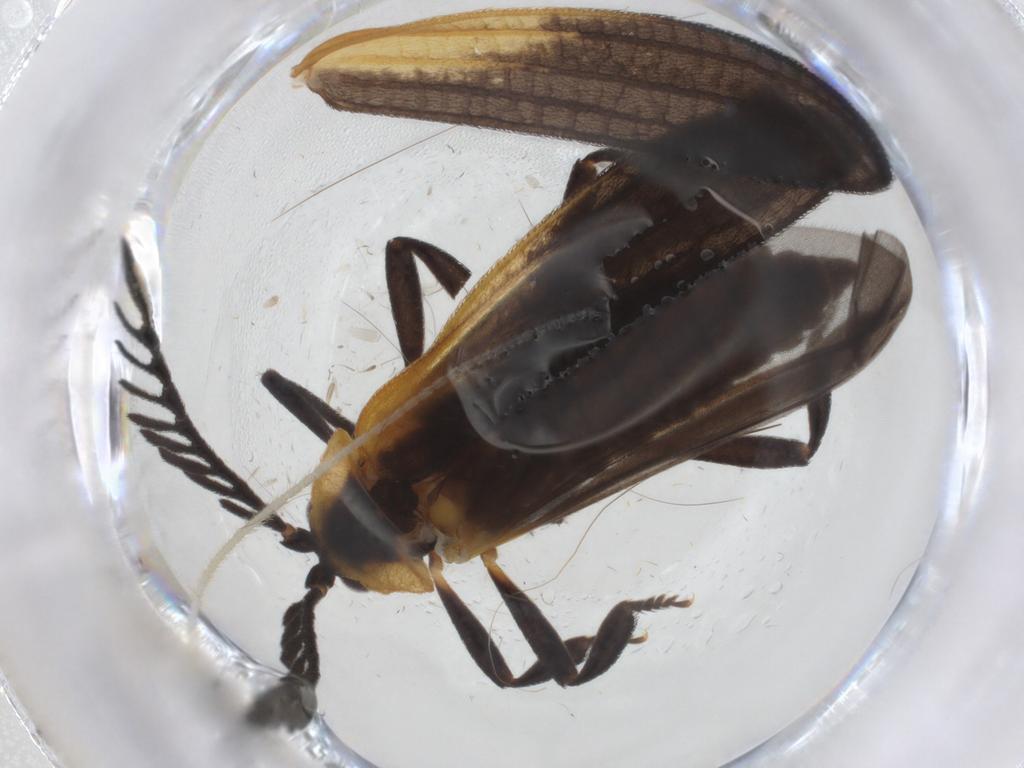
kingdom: Animalia
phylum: Arthropoda
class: Insecta
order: Coleoptera
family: Lycidae
